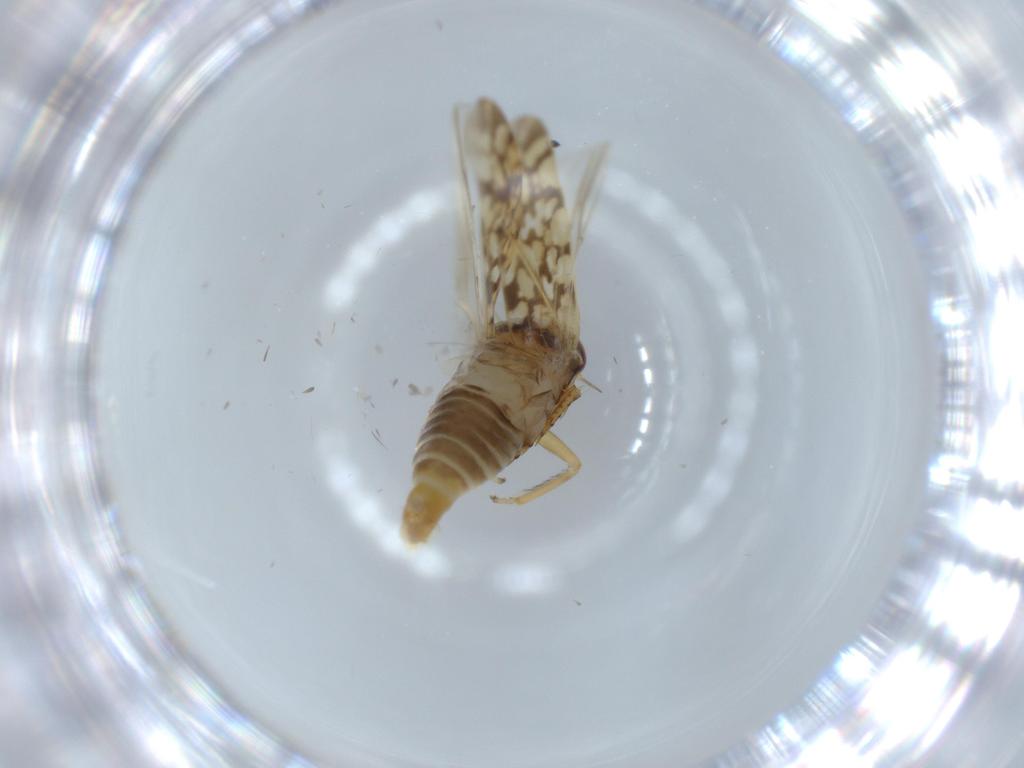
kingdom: Animalia
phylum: Arthropoda
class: Insecta
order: Hemiptera
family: Cicadellidae
